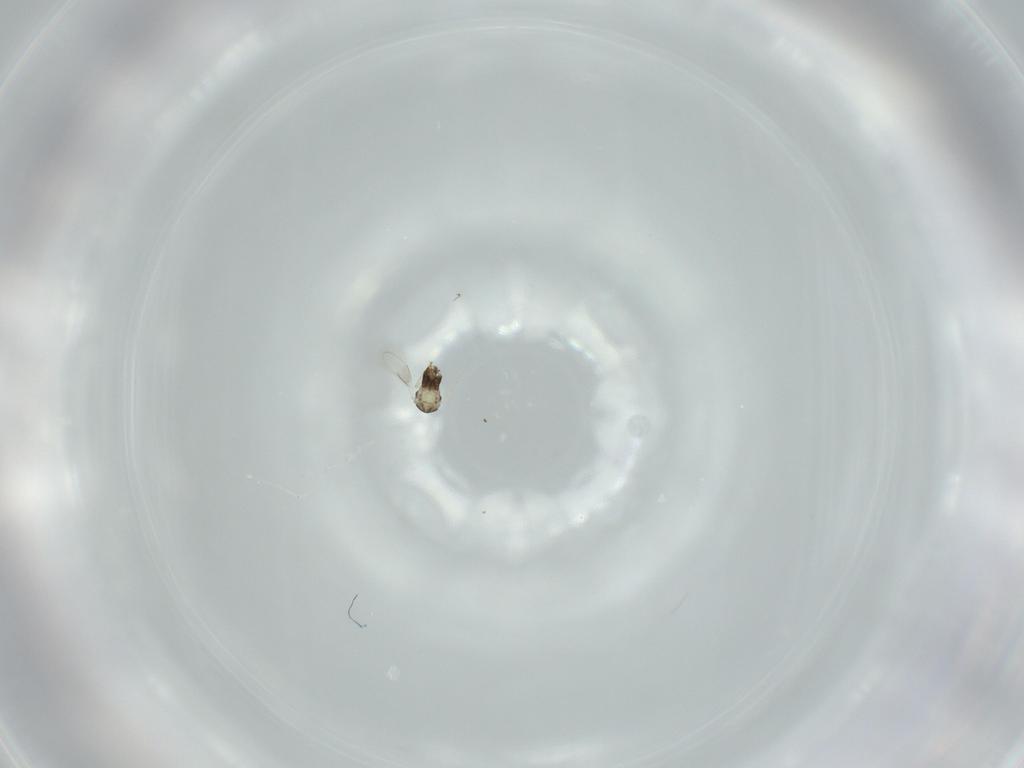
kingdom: Animalia
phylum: Arthropoda
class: Insecta
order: Hymenoptera
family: Aphelinidae
